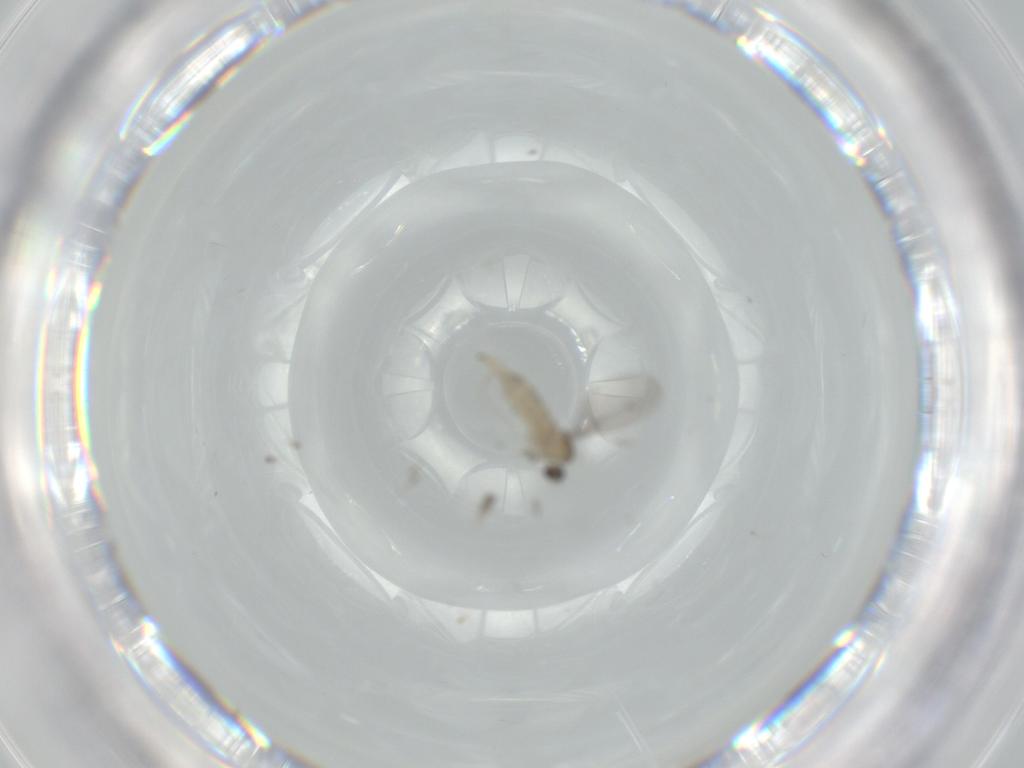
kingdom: Animalia
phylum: Arthropoda
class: Insecta
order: Diptera
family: Cecidomyiidae
